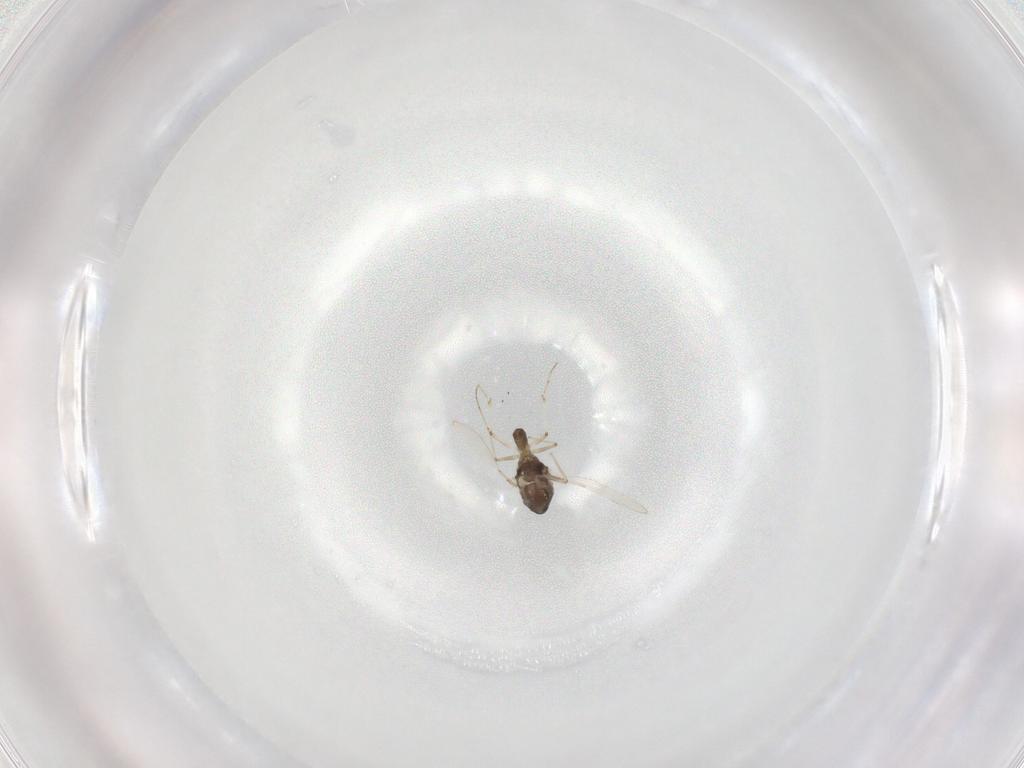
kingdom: Animalia
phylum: Arthropoda
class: Insecta
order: Diptera
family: Chironomidae
